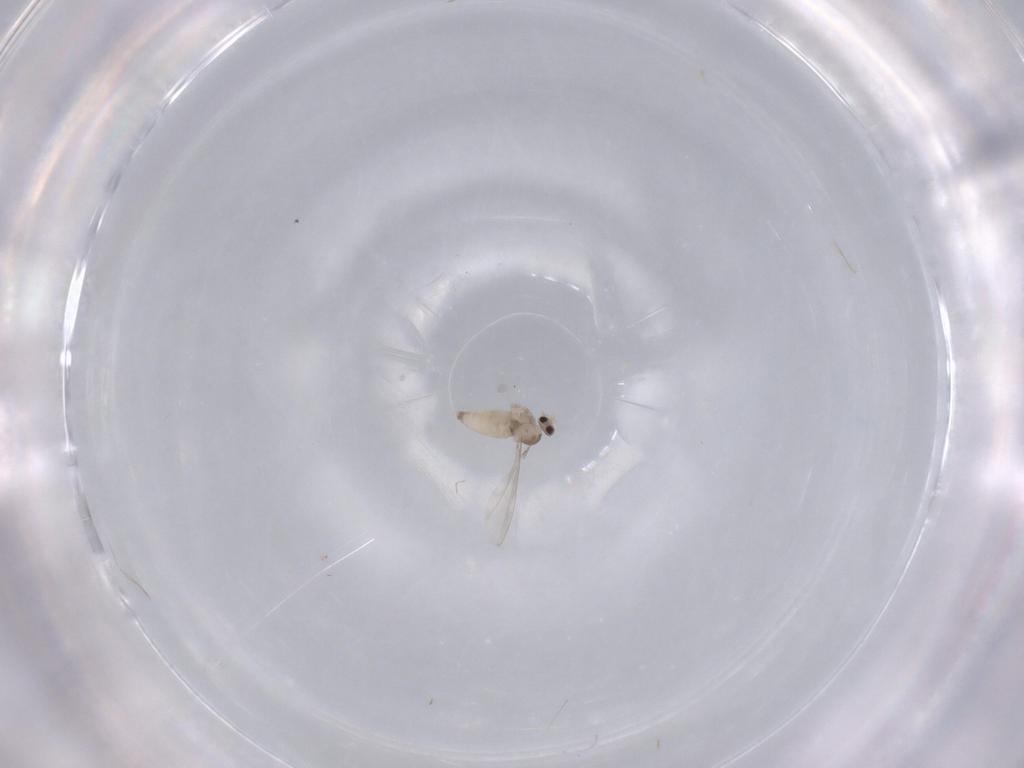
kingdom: Animalia
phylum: Arthropoda
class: Insecta
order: Diptera
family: Cecidomyiidae
